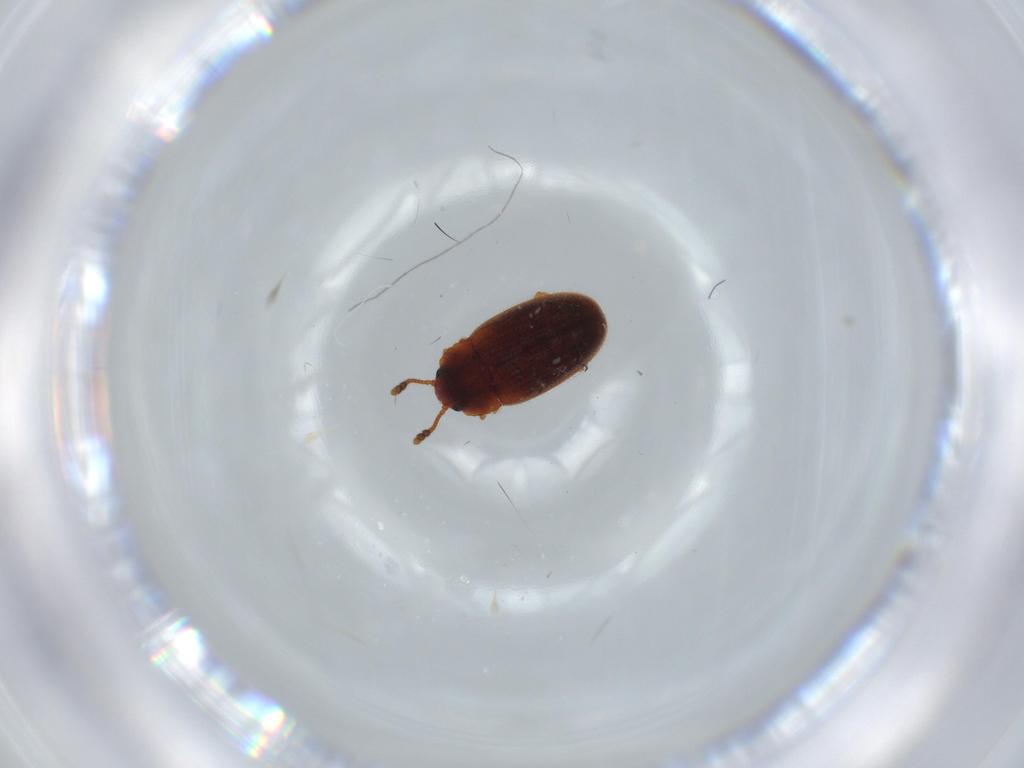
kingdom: Animalia
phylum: Arthropoda
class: Insecta
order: Coleoptera
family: Erotylidae
